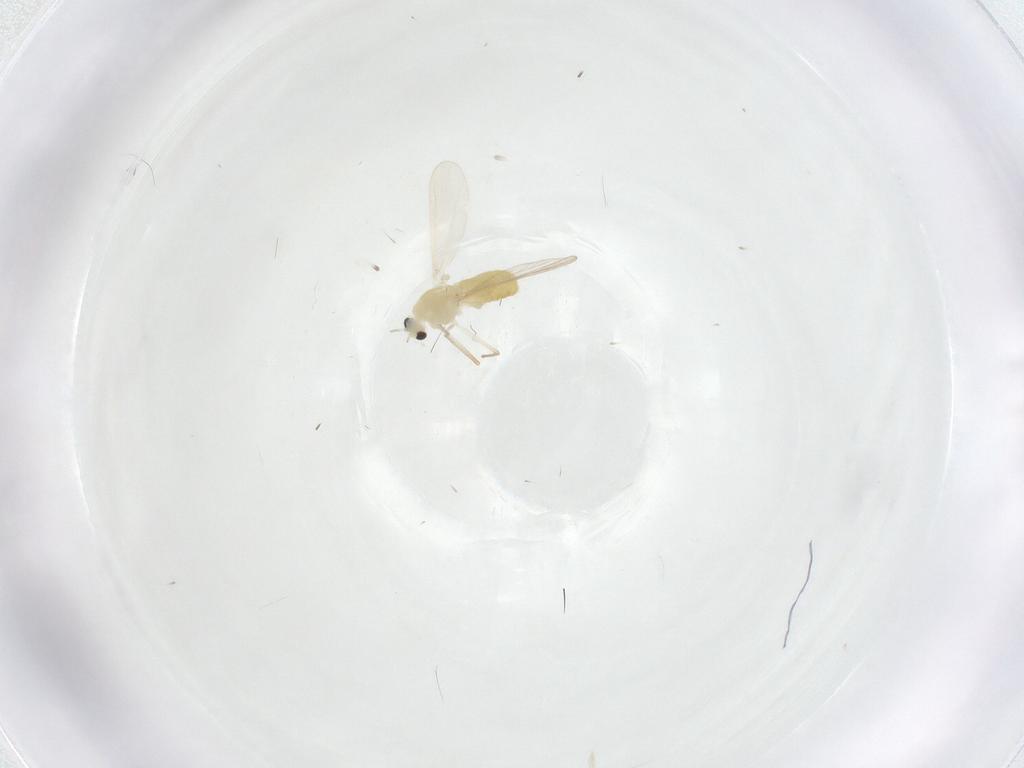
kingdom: Animalia
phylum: Arthropoda
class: Insecta
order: Diptera
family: Chironomidae
